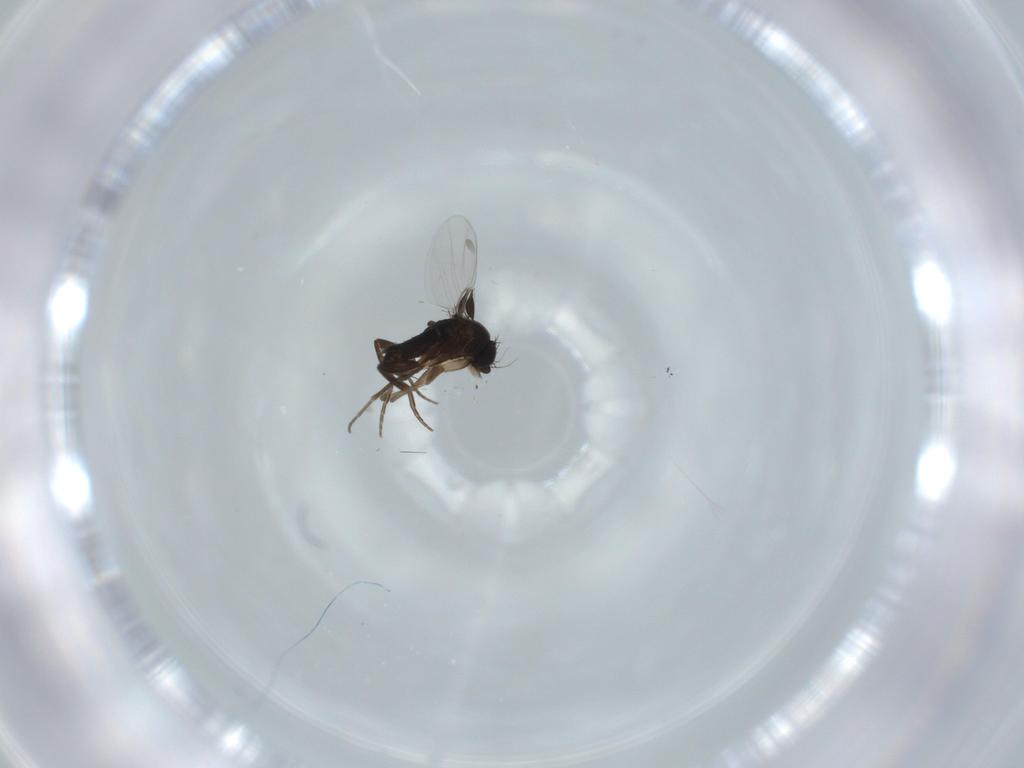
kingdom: Animalia
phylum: Arthropoda
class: Insecta
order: Diptera
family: Phoridae
